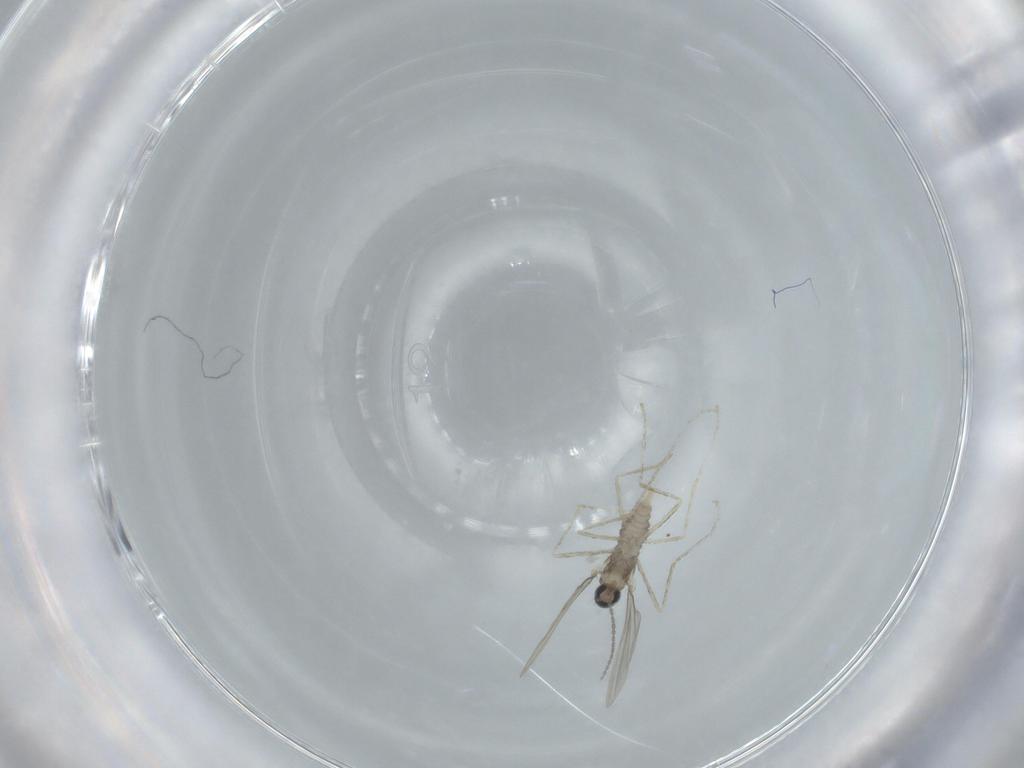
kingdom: Animalia
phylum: Arthropoda
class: Insecta
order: Diptera
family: Cecidomyiidae
